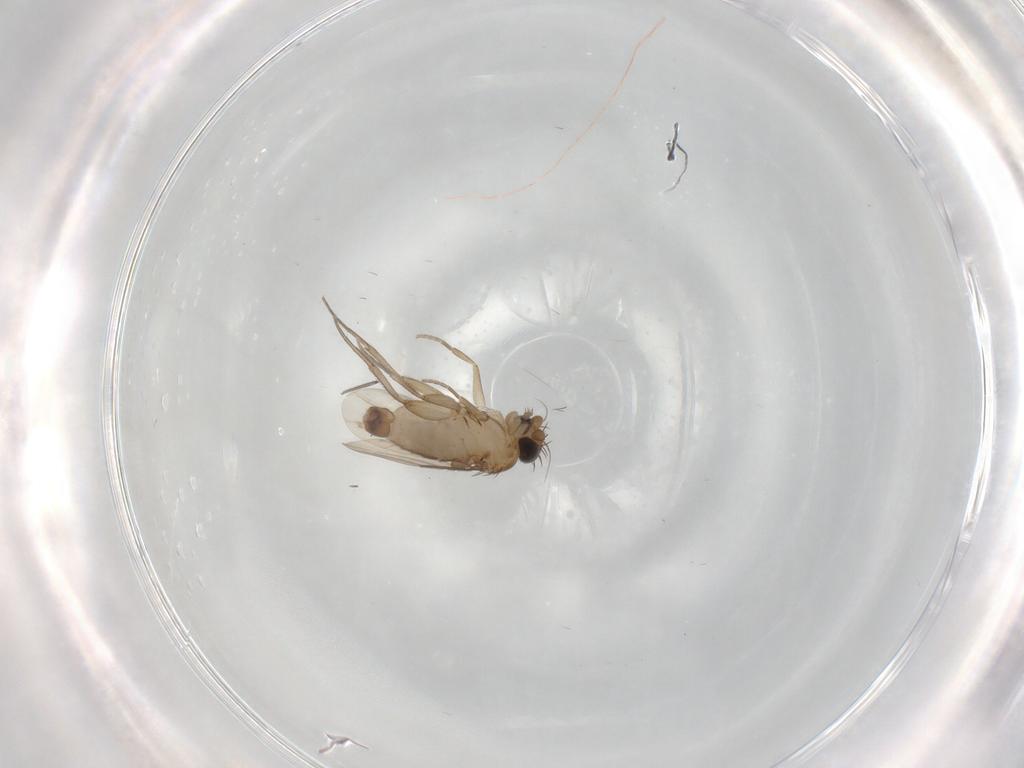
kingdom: Animalia
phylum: Arthropoda
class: Insecta
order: Diptera
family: Phoridae
